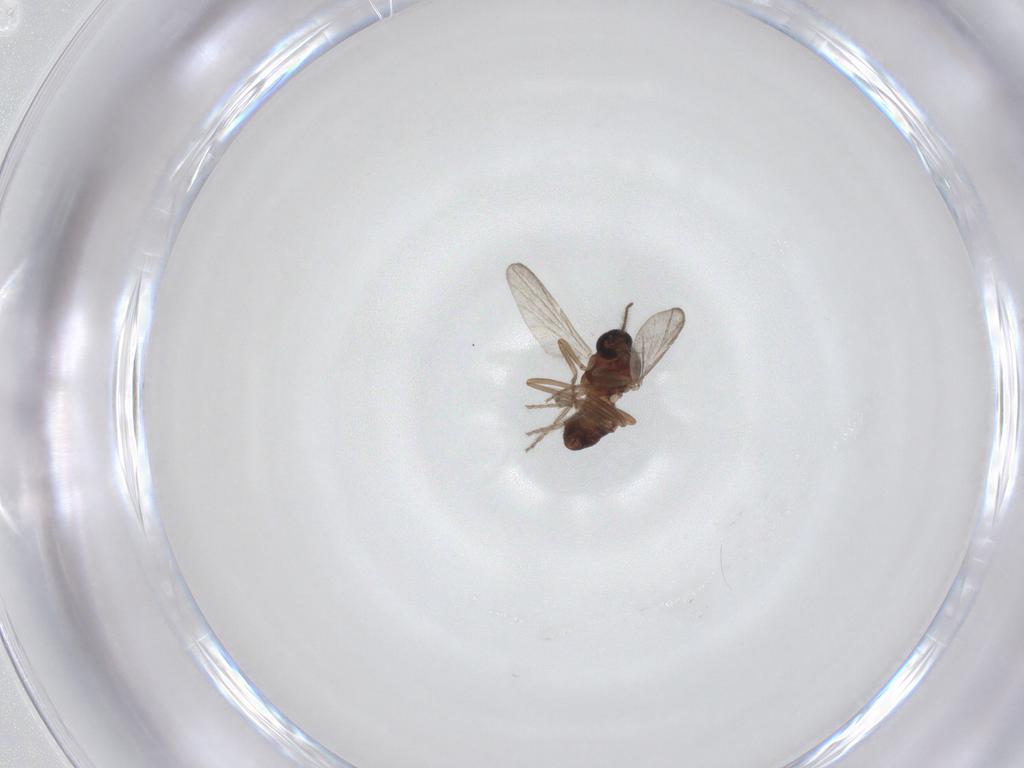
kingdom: Animalia
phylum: Arthropoda
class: Insecta
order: Diptera
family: Ceratopogonidae
